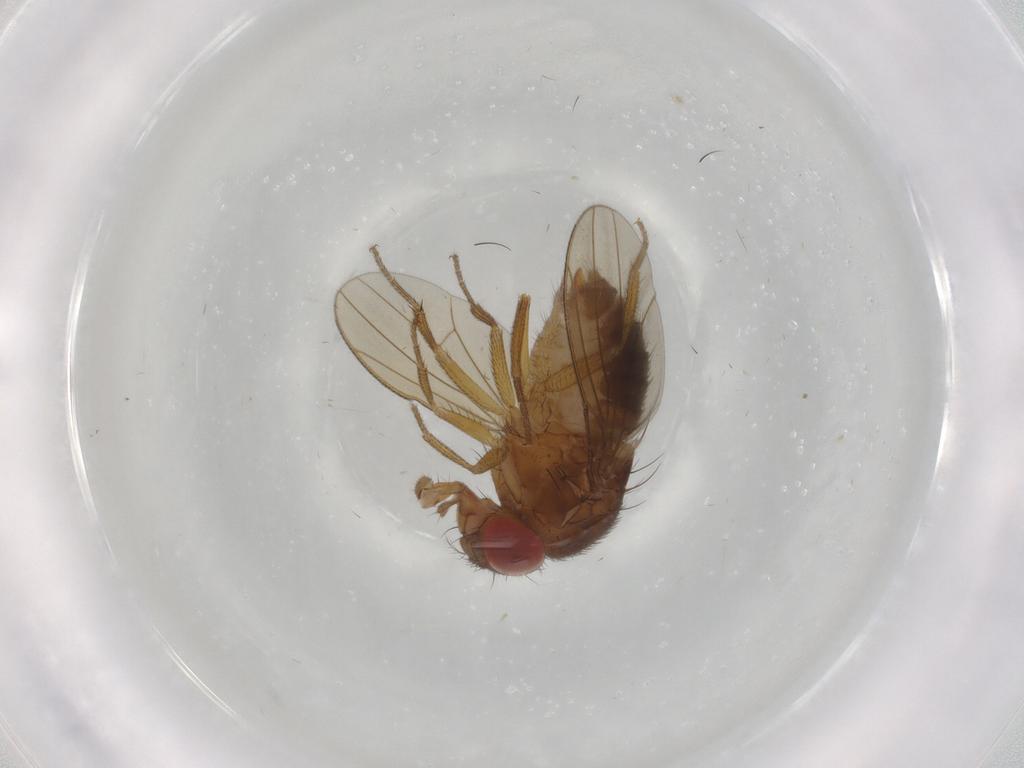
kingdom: Animalia
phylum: Arthropoda
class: Insecta
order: Diptera
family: Drosophilidae
